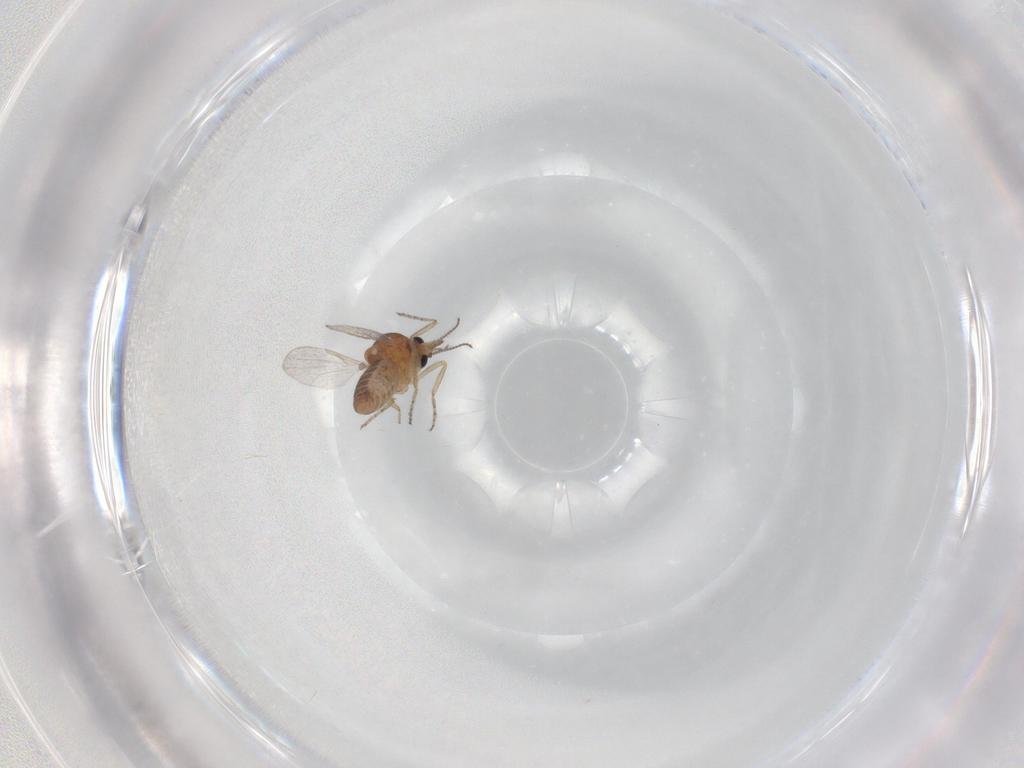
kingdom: Animalia
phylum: Arthropoda
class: Insecta
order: Diptera
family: Ceratopogonidae
